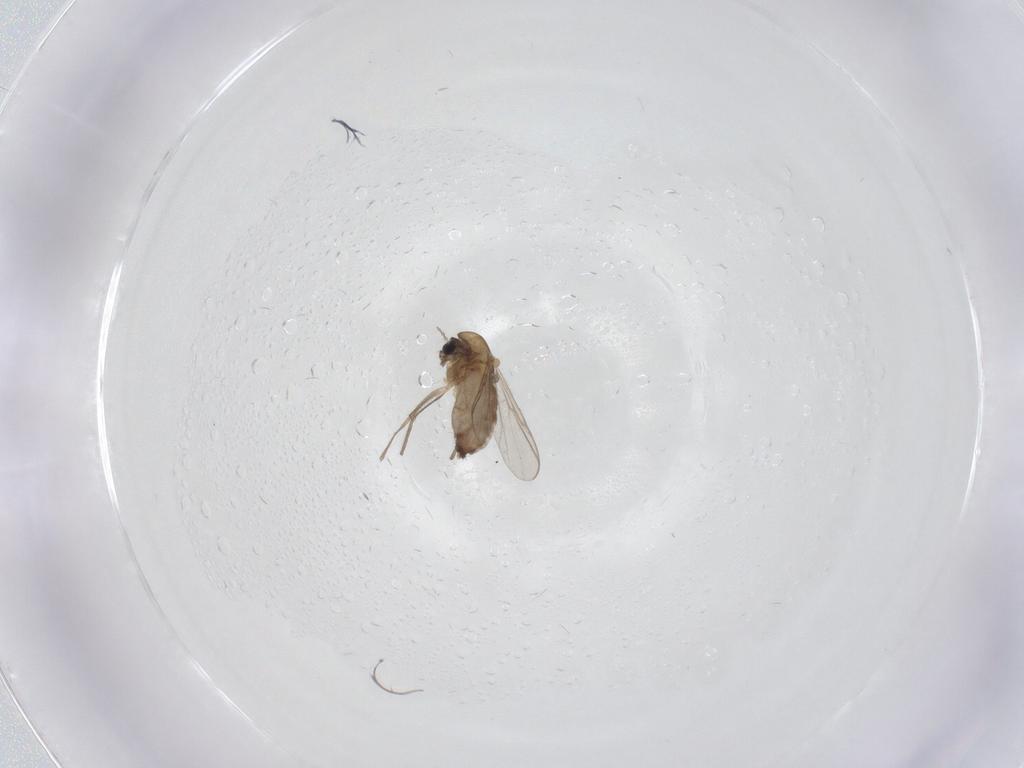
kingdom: Animalia
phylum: Arthropoda
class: Insecta
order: Diptera
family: Chironomidae
